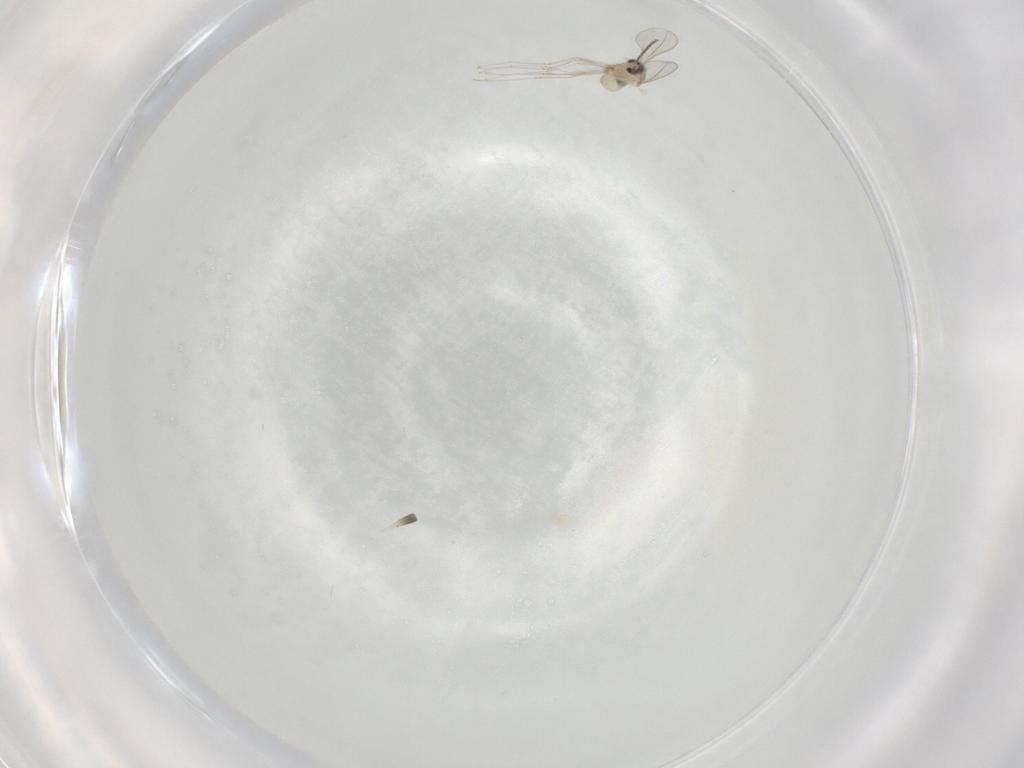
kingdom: Animalia
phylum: Arthropoda
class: Insecta
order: Diptera
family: Cecidomyiidae
